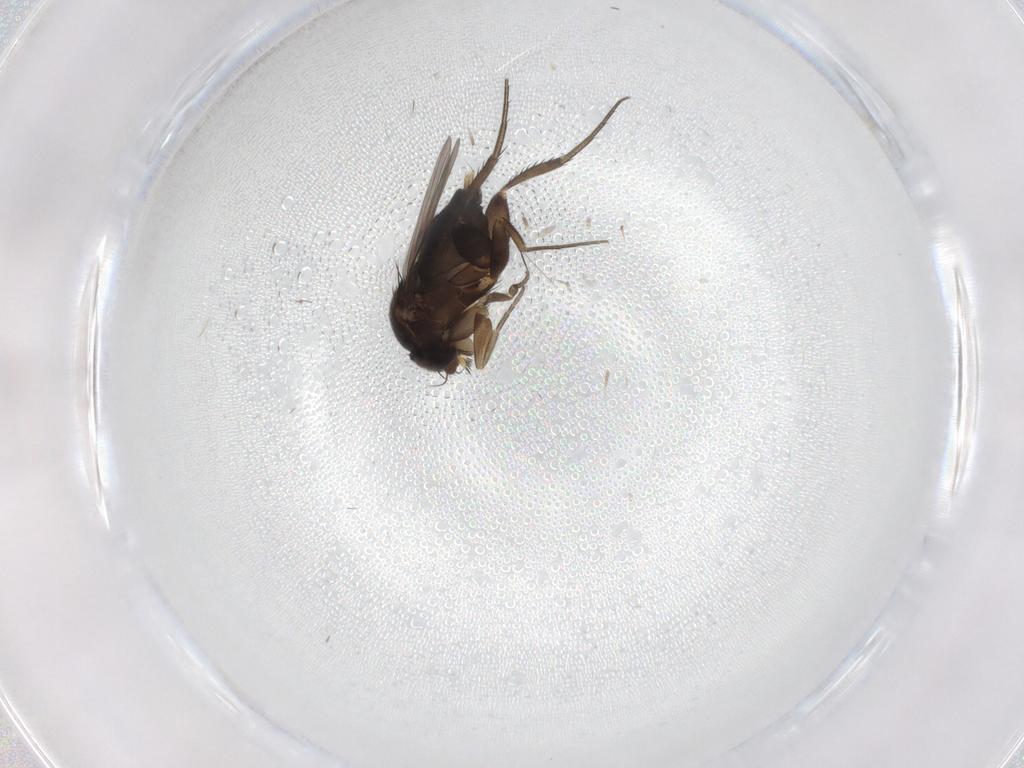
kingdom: Animalia
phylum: Arthropoda
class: Insecta
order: Diptera
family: Phoridae
